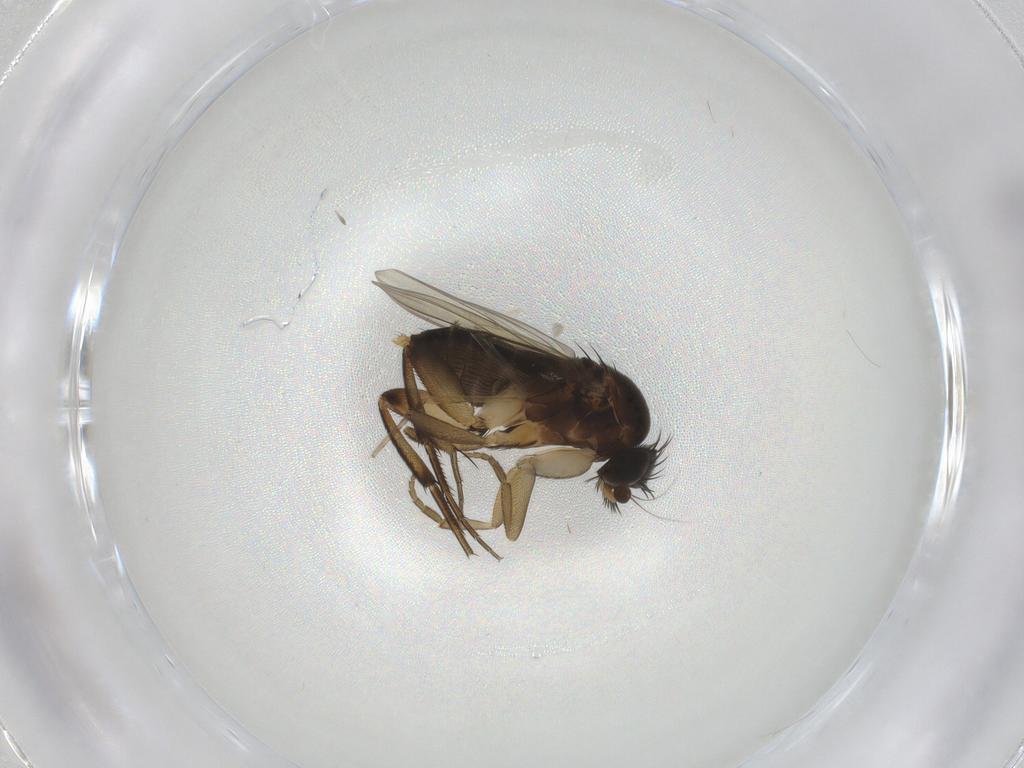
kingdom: Animalia
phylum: Arthropoda
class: Insecta
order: Diptera
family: Phoridae
